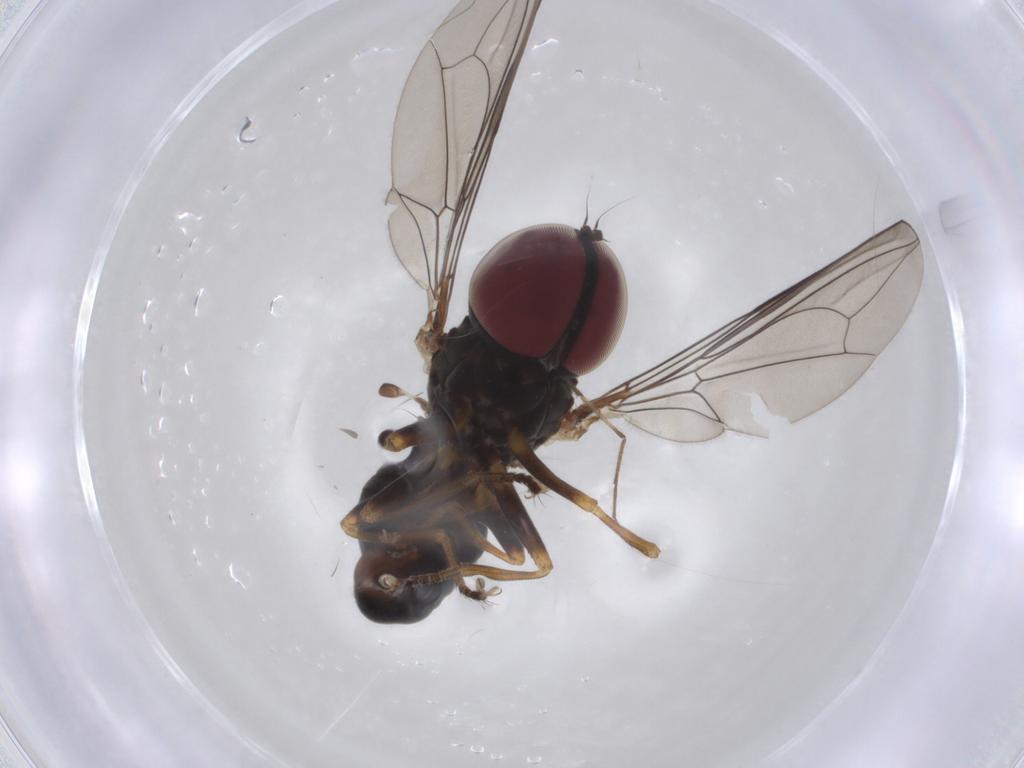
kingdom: Animalia
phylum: Arthropoda
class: Insecta
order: Diptera
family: Pipunculidae
